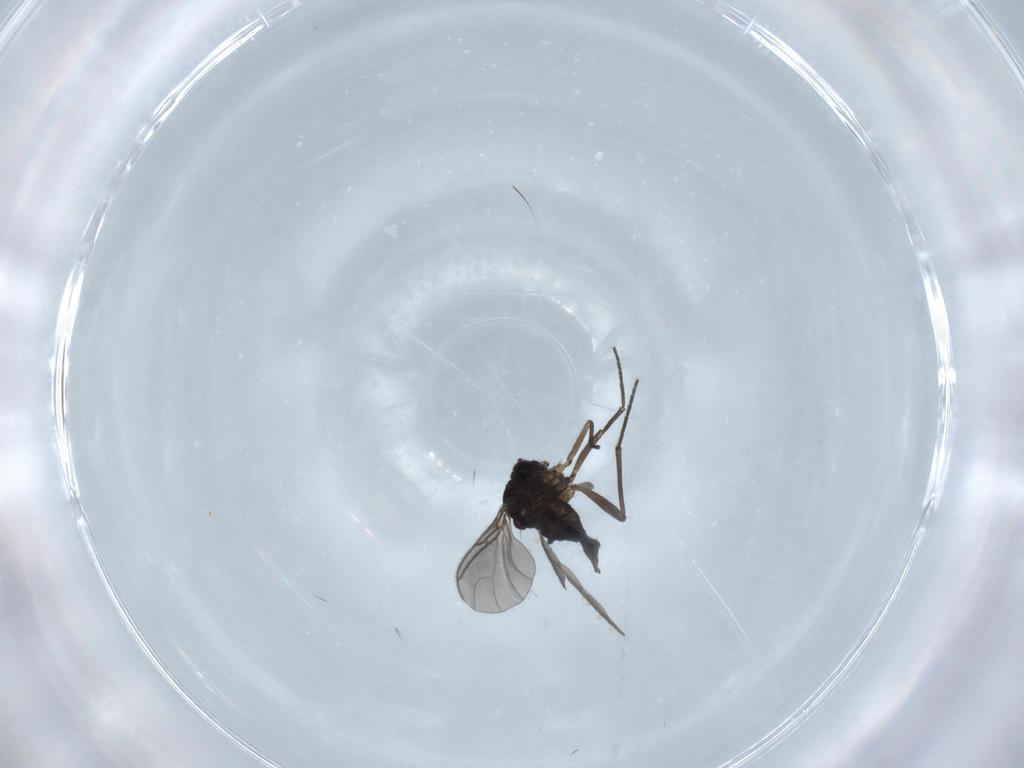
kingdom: Animalia
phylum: Arthropoda
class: Insecta
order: Diptera
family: Sciaridae
